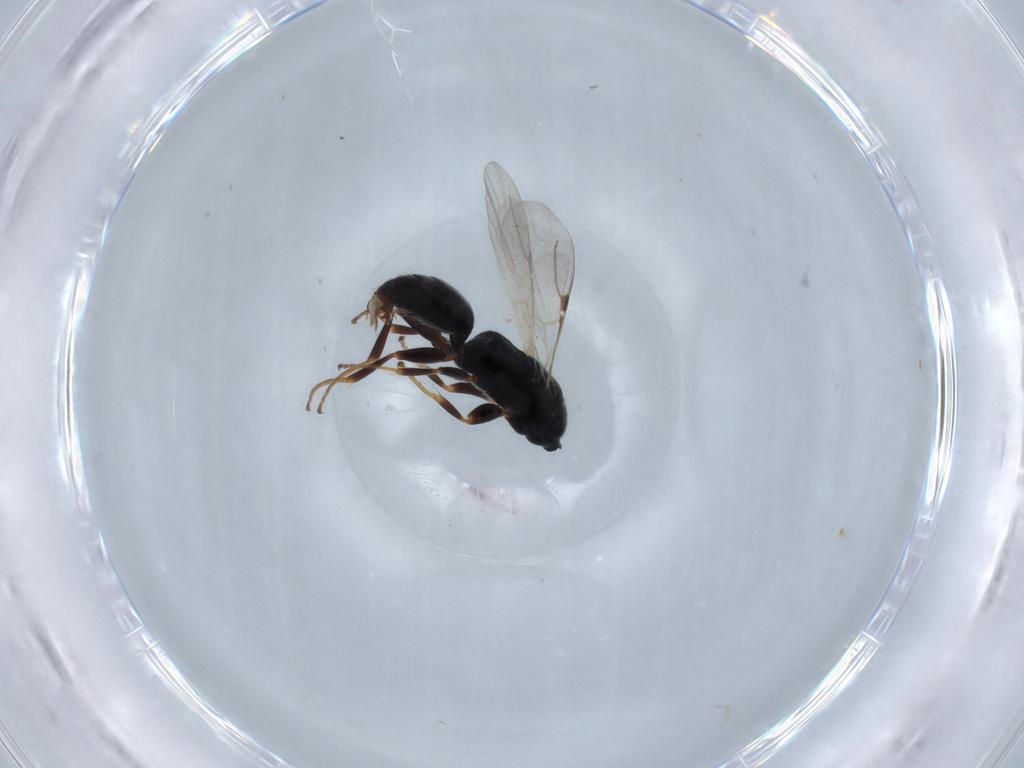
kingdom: Animalia
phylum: Arthropoda
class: Insecta
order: Hymenoptera
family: Bethylidae
